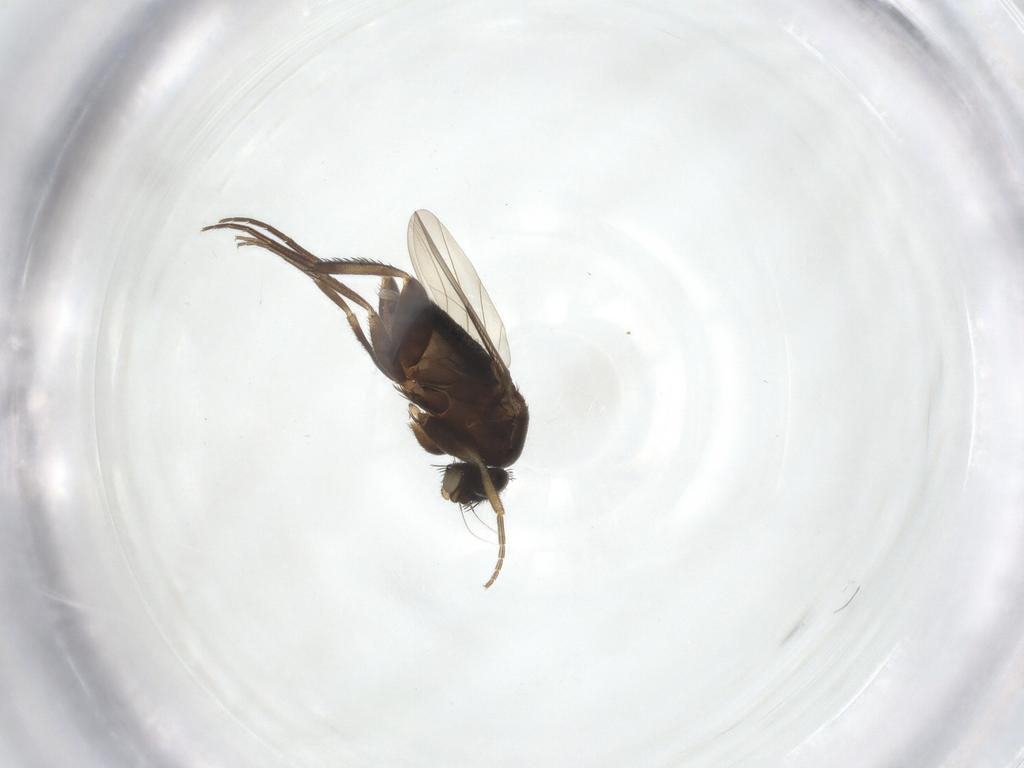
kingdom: Animalia
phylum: Arthropoda
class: Insecta
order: Diptera
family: Phoridae
